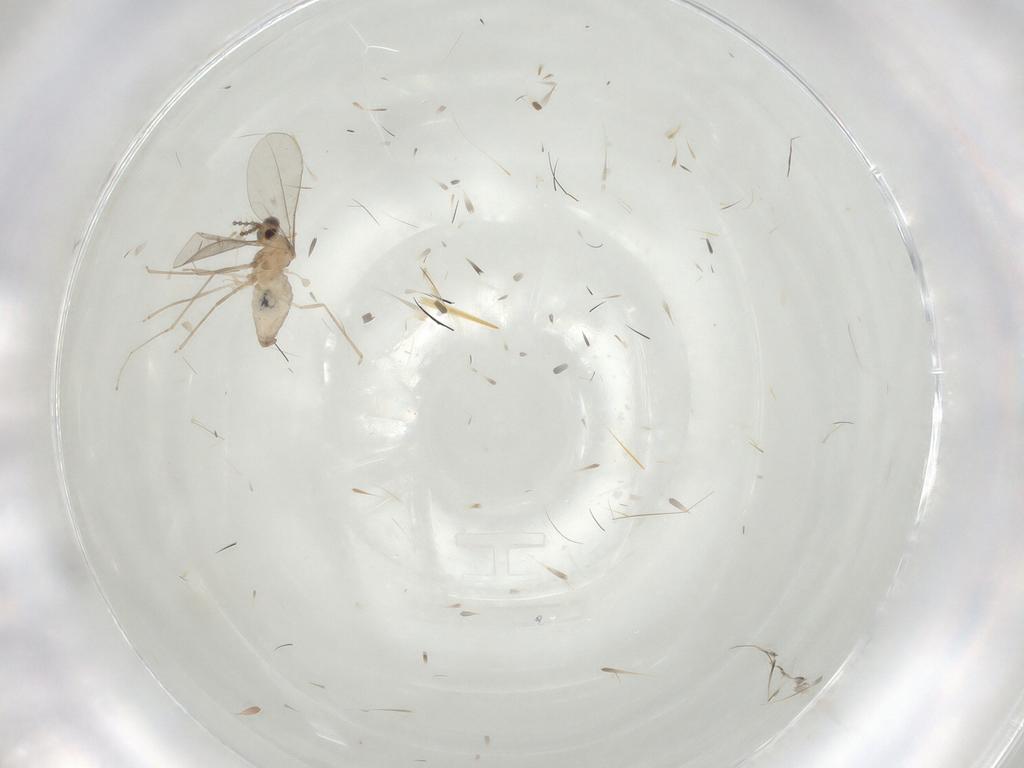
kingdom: Animalia
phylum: Arthropoda
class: Insecta
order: Diptera
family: Cecidomyiidae
